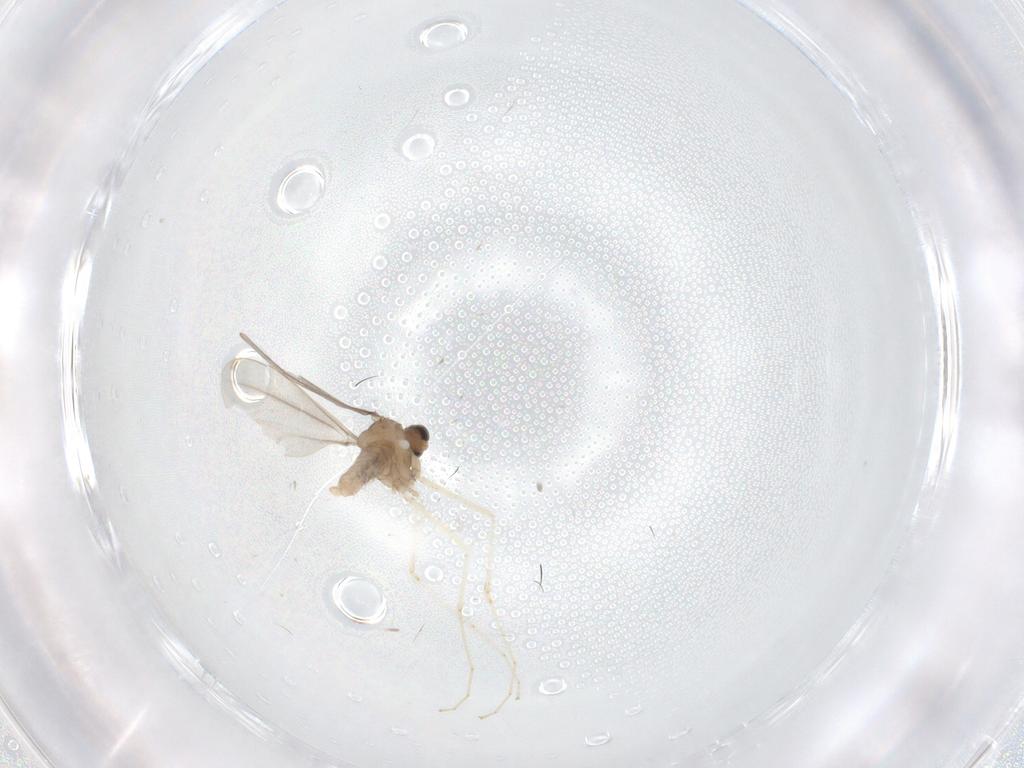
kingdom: Animalia
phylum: Arthropoda
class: Insecta
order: Diptera
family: Cecidomyiidae
